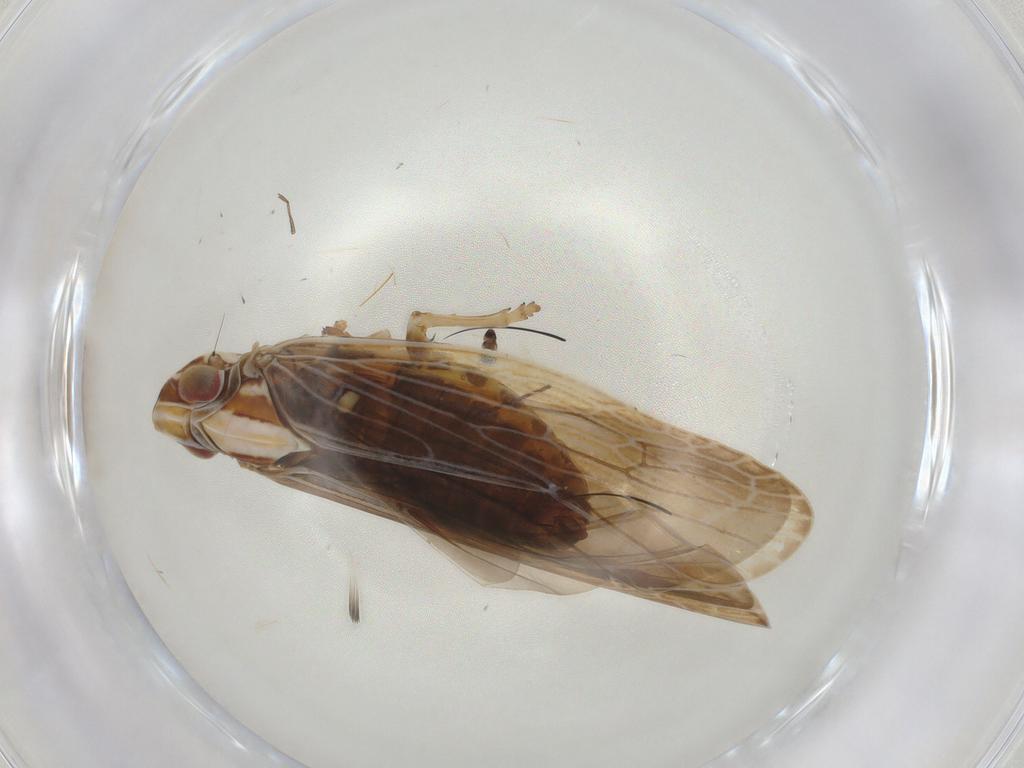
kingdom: Animalia
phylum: Arthropoda
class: Insecta
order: Hemiptera
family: Achilidae
